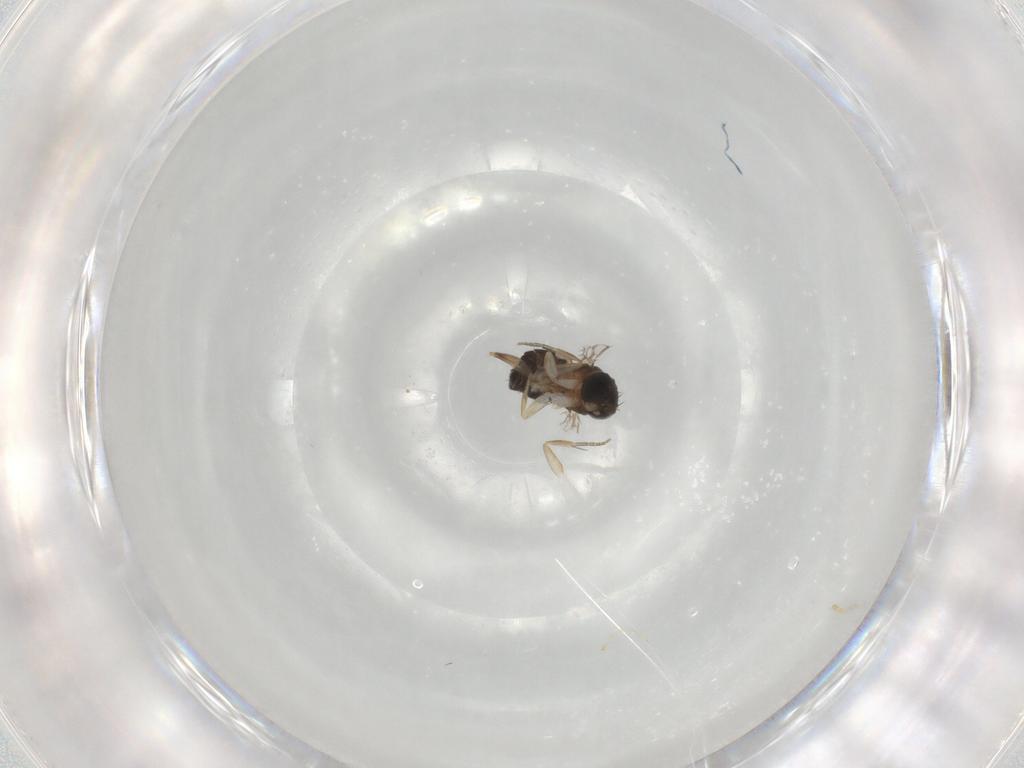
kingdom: Animalia
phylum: Arthropoda
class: Insecta
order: Diptera
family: Phoridae
